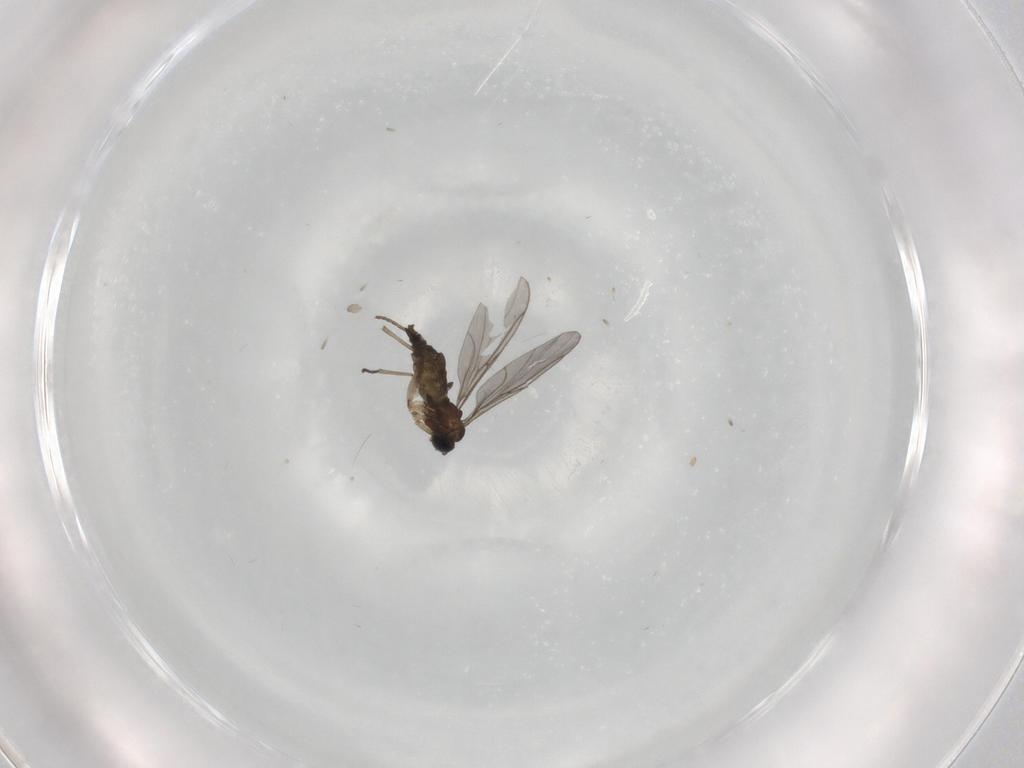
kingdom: Animalia
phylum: Arthropoda
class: Insecta
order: Diptera
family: Sciaridae
